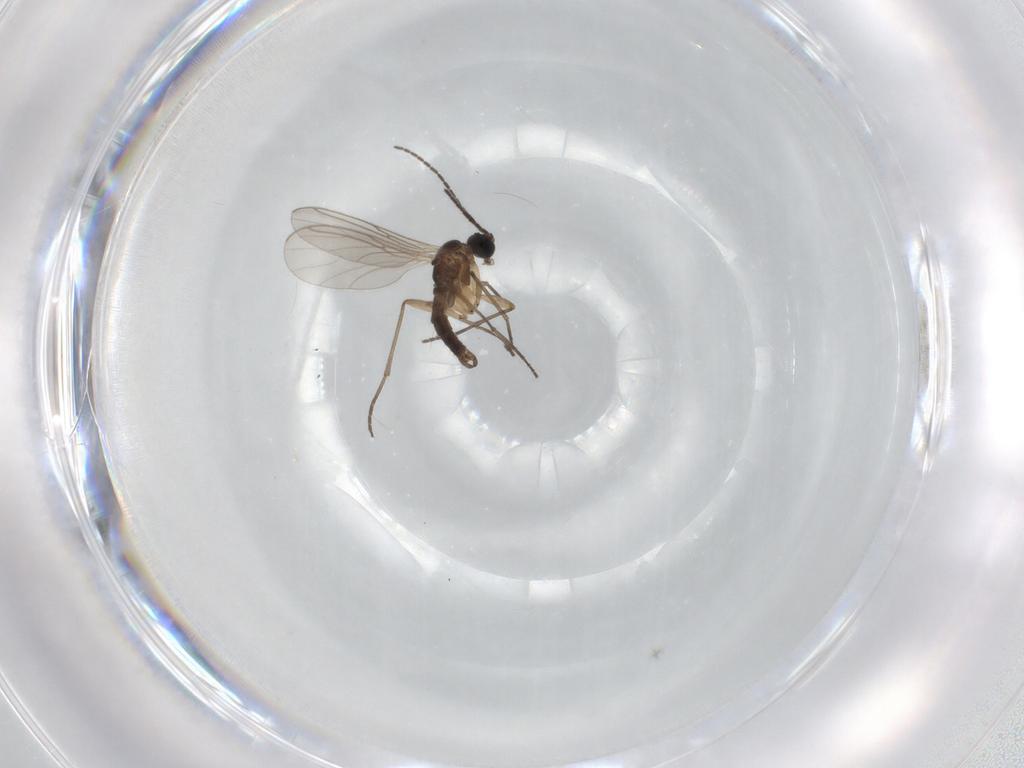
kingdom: Animalia
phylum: Arthropoda
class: Insecta
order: Diptera
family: Sciaridae
